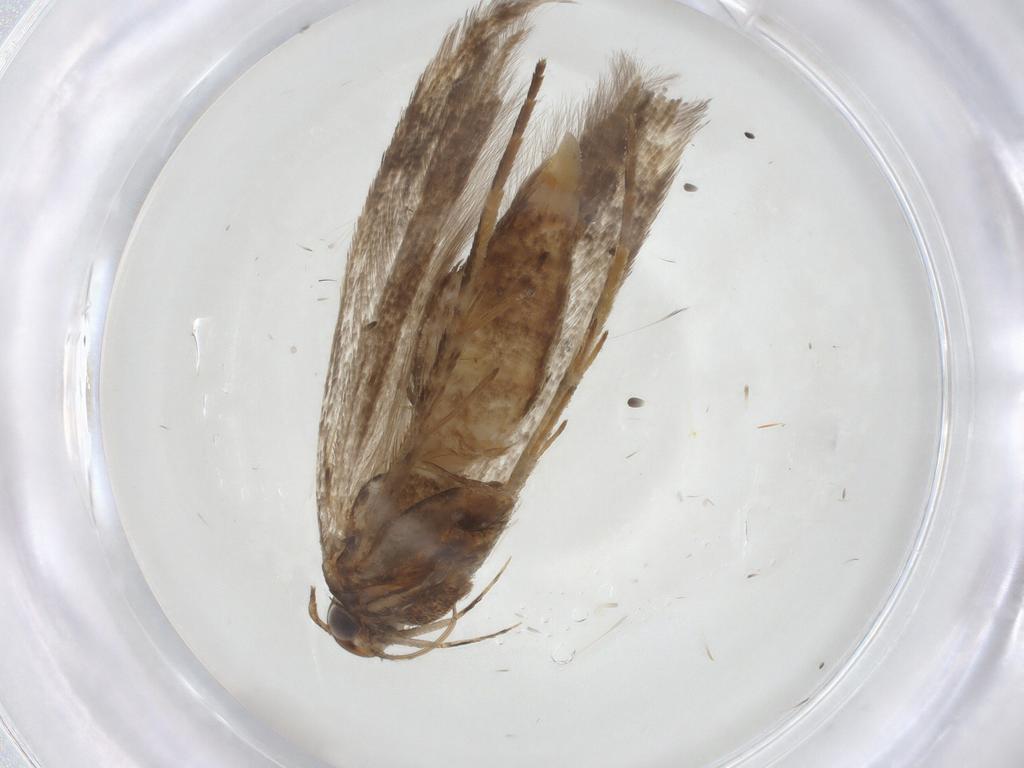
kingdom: Animalia
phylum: Arthropoda
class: Insecta
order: Lepidoptera
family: Gelechiidae
